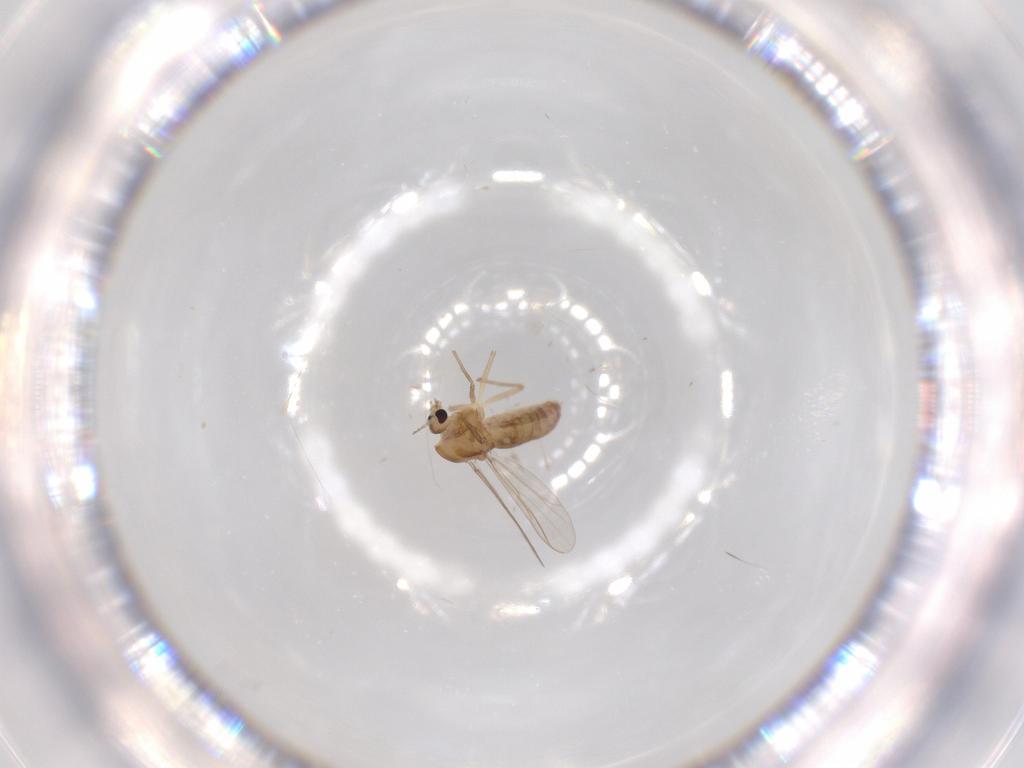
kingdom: Animalia
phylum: Arthropoda
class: Insecta
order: Diptera
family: Chironomidae
